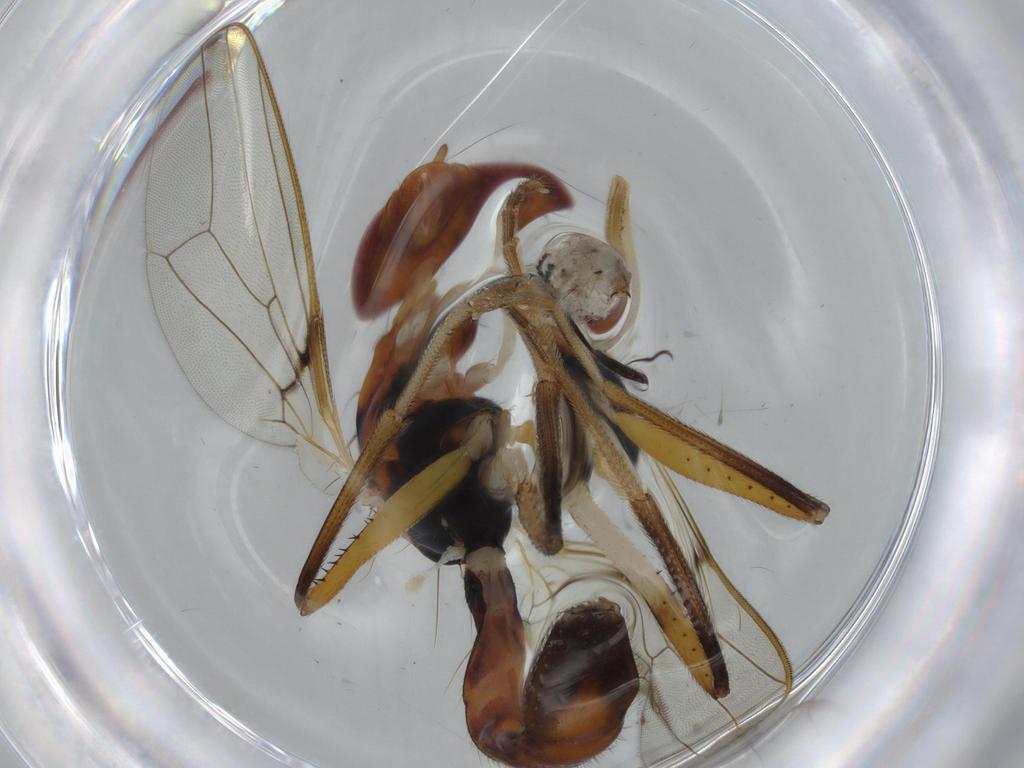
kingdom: Animalia
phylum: Arthropoda
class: Insecta
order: Diptera
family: Richardiidae
